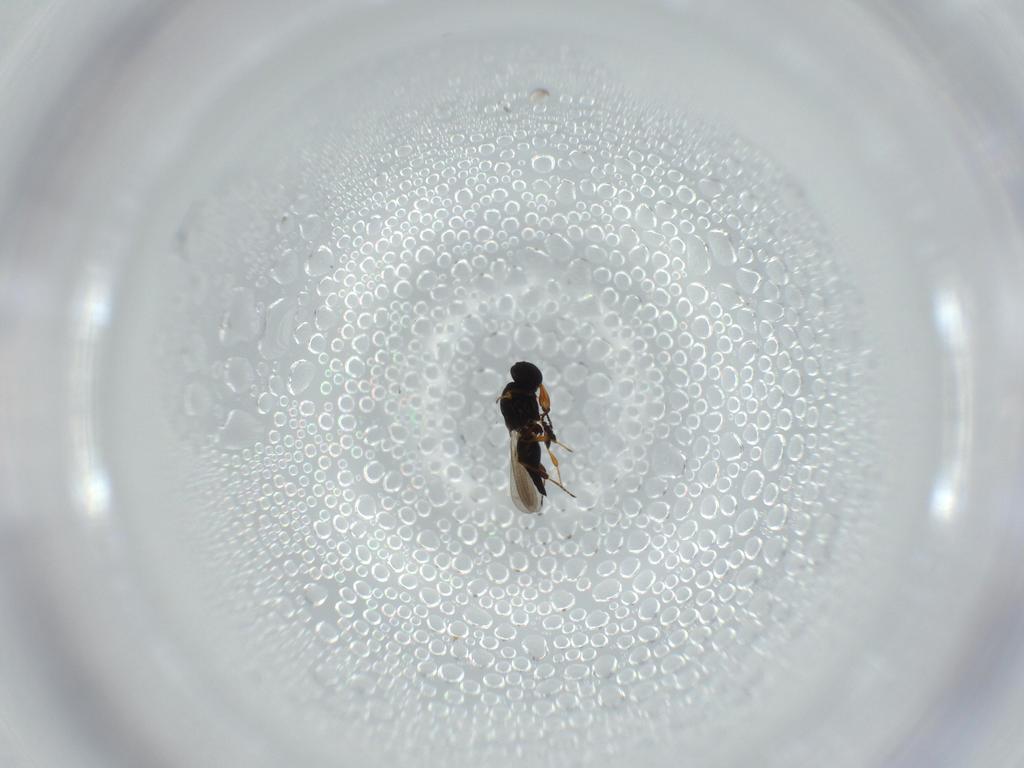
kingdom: Animalia
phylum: Arthropoda
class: Insecta
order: Hymenoptera
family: Platygastridae
